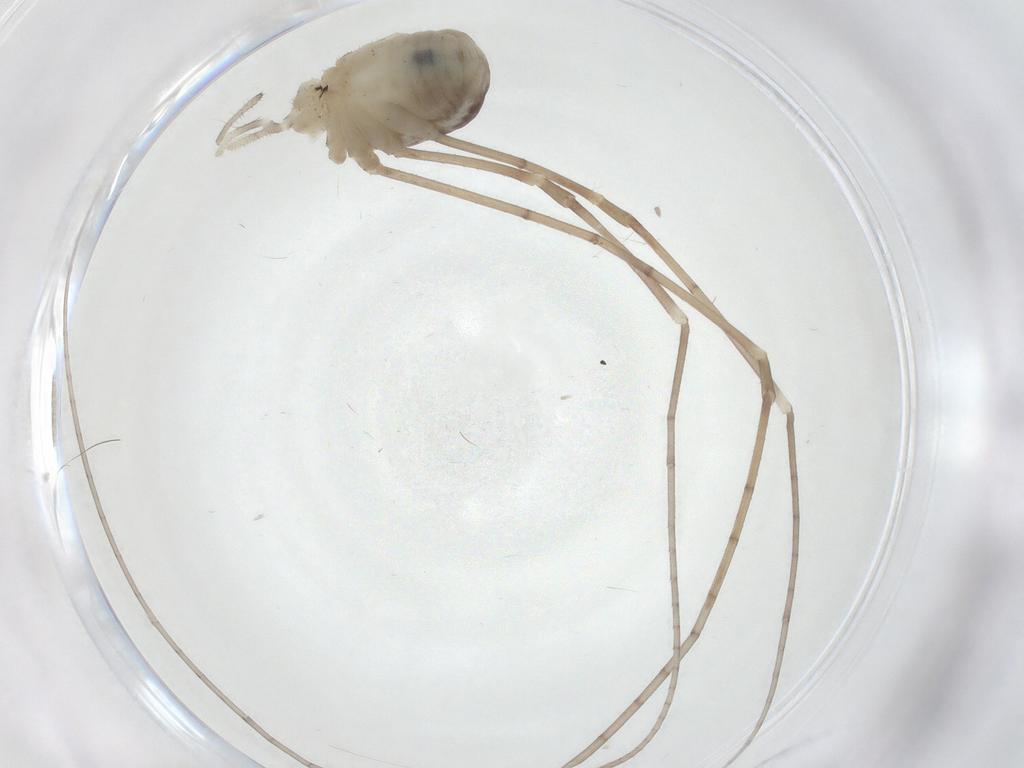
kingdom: Animalia
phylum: Arthropoda
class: Arachnida
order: Opiliones
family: Sclerosomatidae
